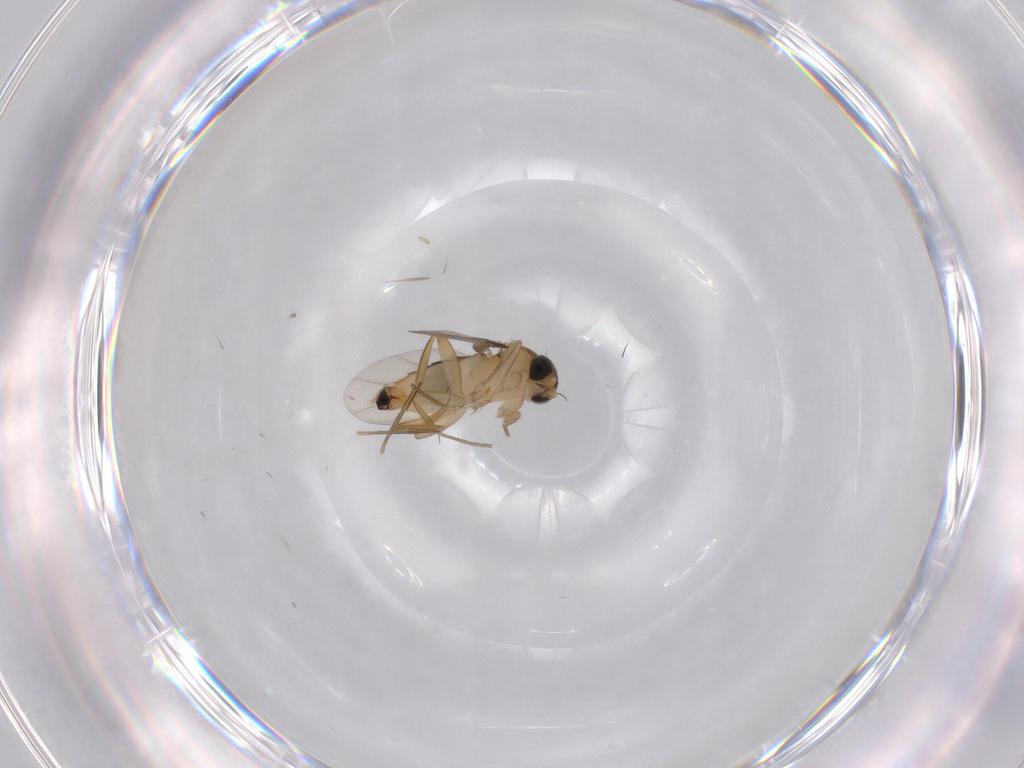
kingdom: Animalia
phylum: Arthropoda
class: Insecta
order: Diptera
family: Phoridae
